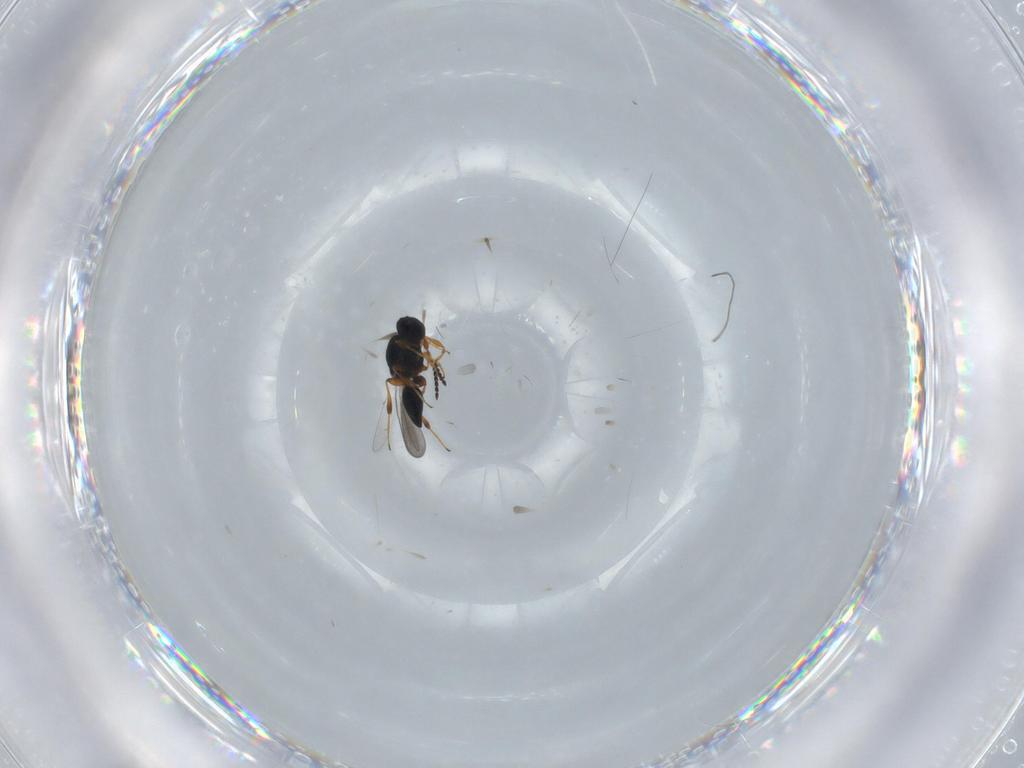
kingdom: Animalia
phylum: Arthropoda
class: Insecta
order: Hymenoptera
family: Platygastridae
